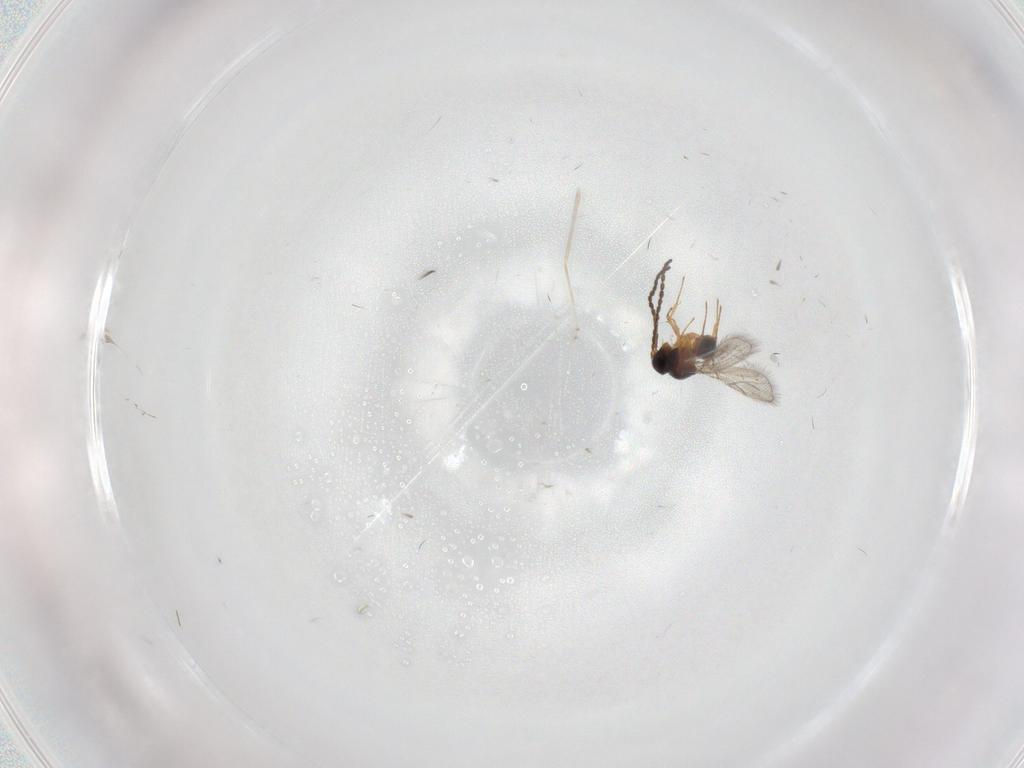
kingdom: Animalia
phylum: Arthropoda
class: Insecta
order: Hymenoptera
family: Figitidae
